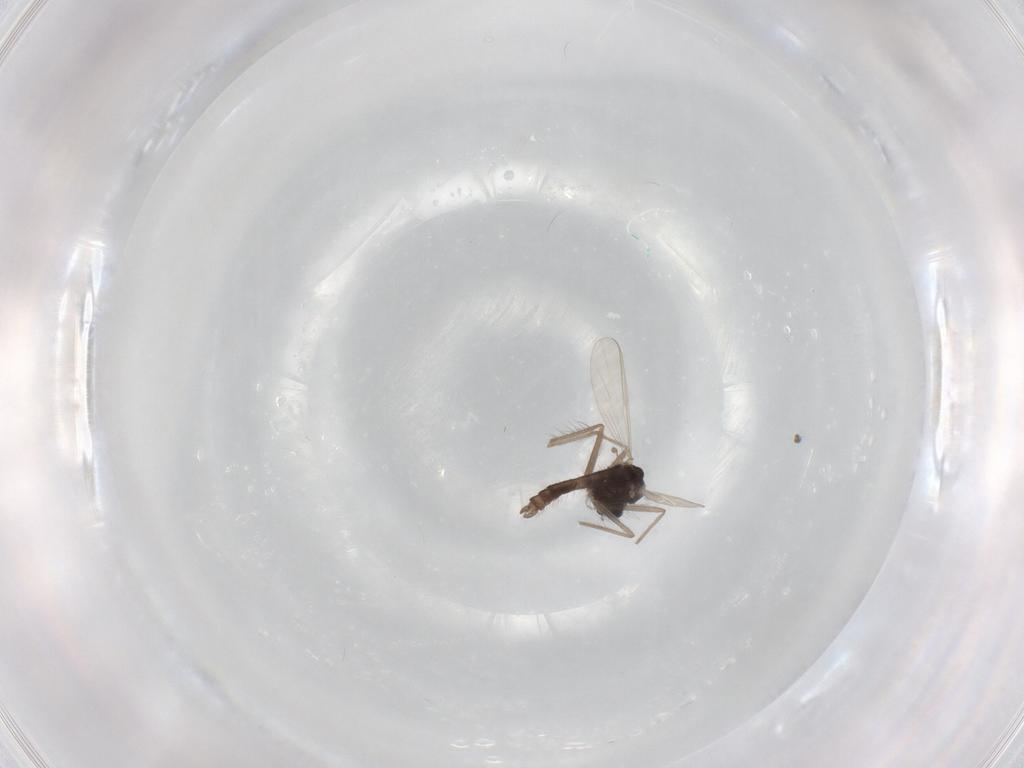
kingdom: Animalia
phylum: Arthropoda
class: Insecta
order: Diptera
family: Chironomidae
